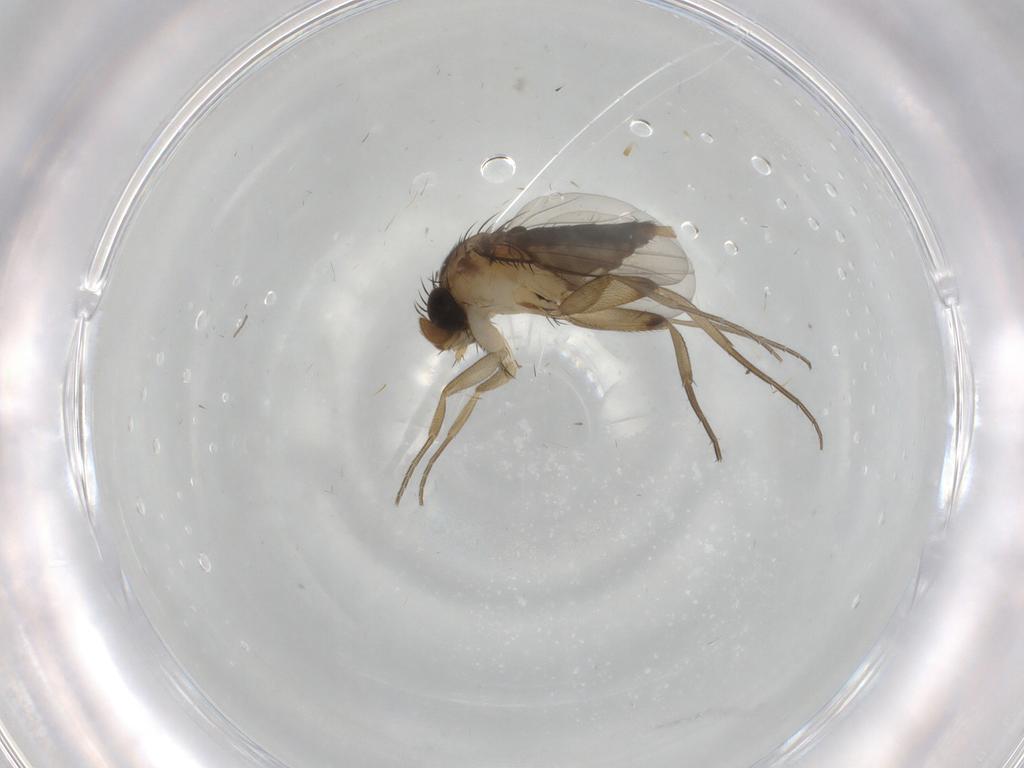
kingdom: Animalia
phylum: Arthropoda
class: Insecta
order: Diptera
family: Phoridae
